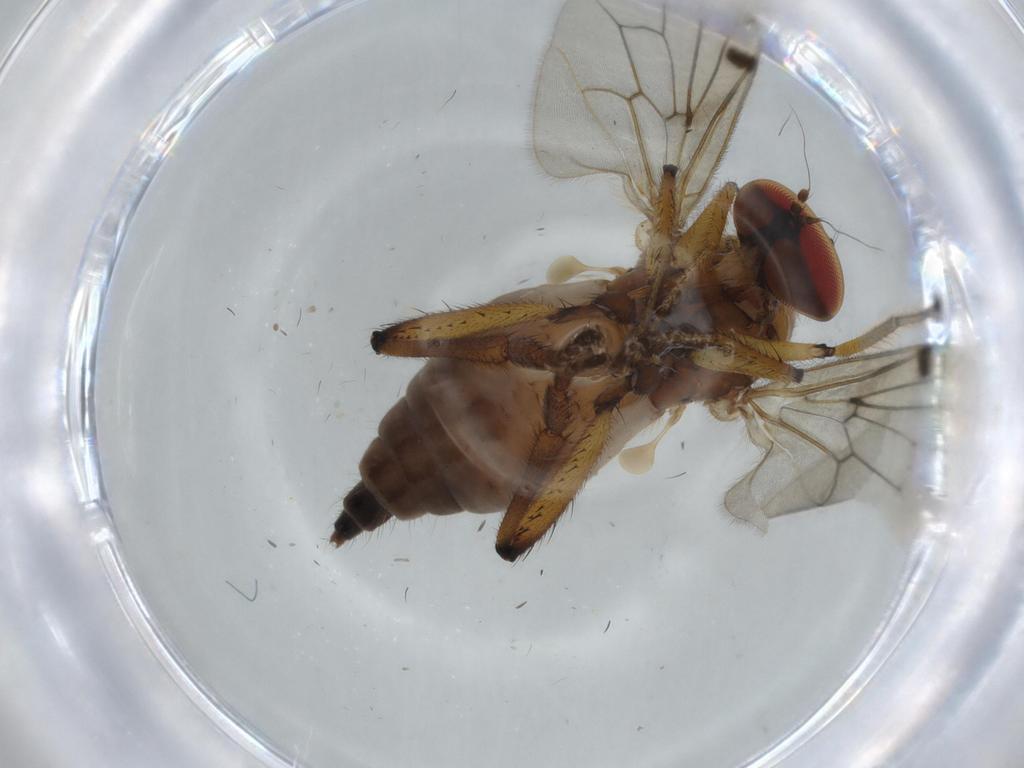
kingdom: Animalia
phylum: Arthropoda
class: Insecta
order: Diptera
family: Hybotidae
